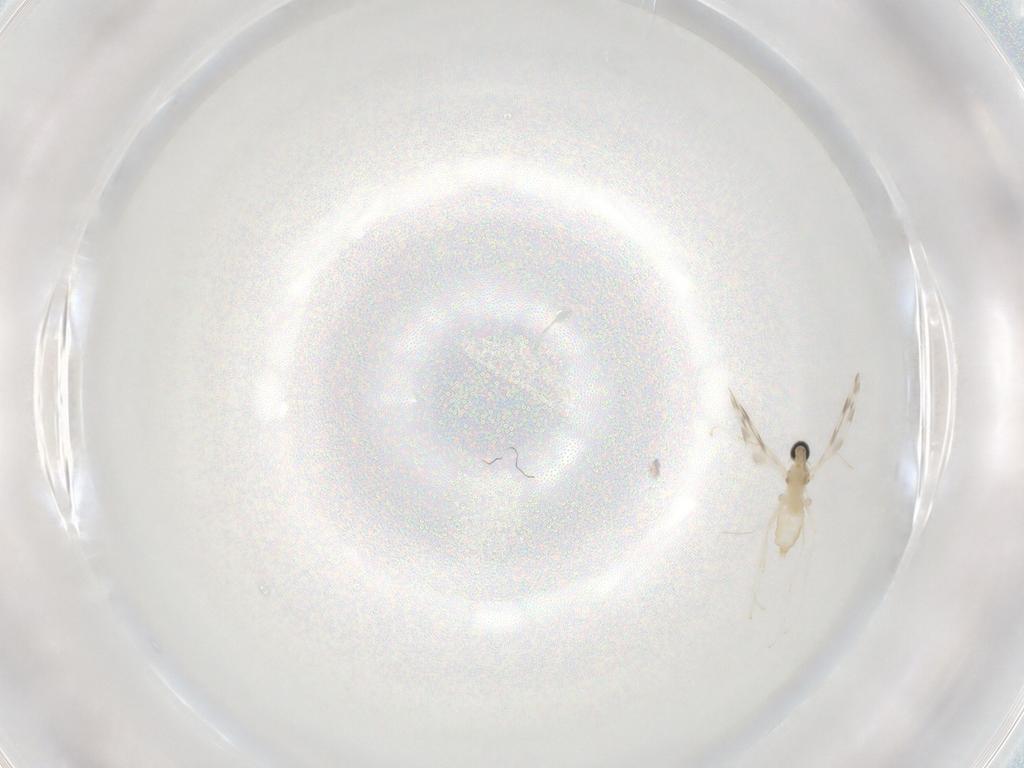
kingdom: Animalia
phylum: Arthropoda
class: Insecta
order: Diptera
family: Cecidomyiidae
